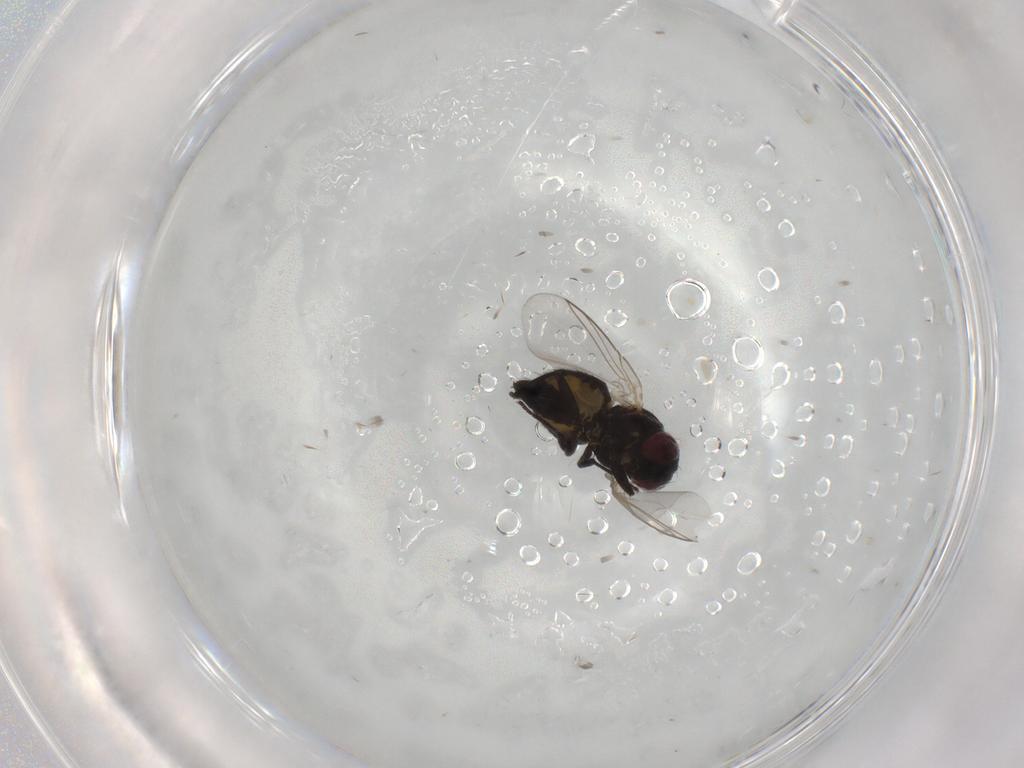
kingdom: Animalia
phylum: Arthropoda
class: Insecta
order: Diptera
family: Agromyzidae
